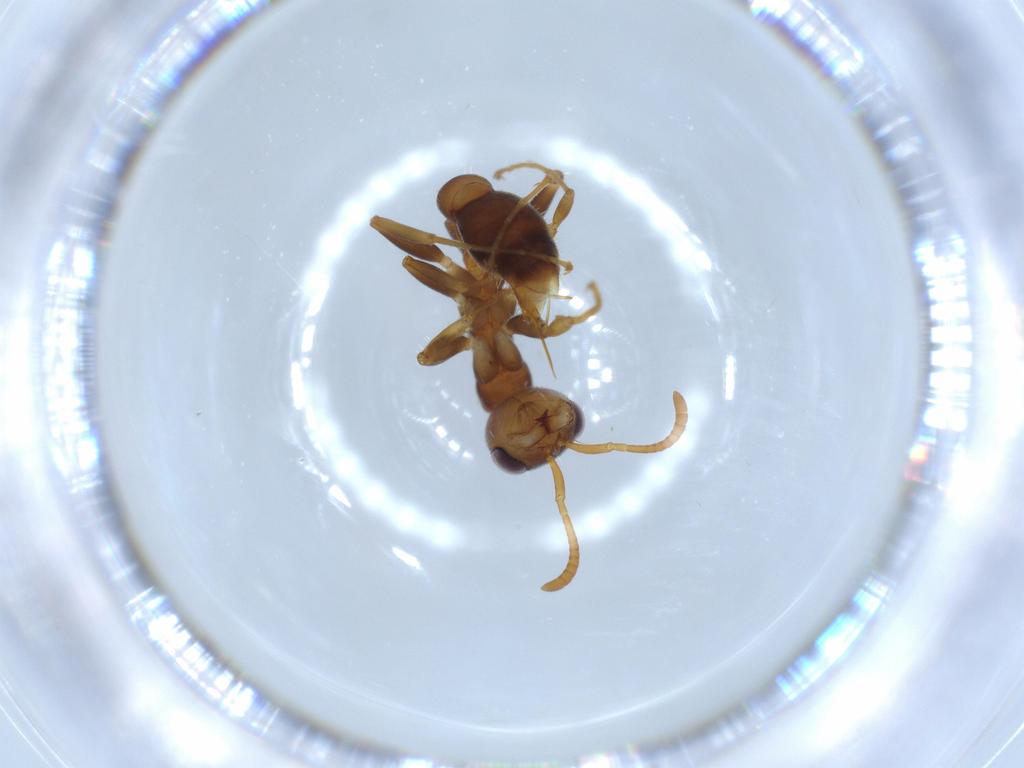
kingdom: Animalia
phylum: Arthropoda
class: Insecta
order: Hymenoptera
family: Formicidae
